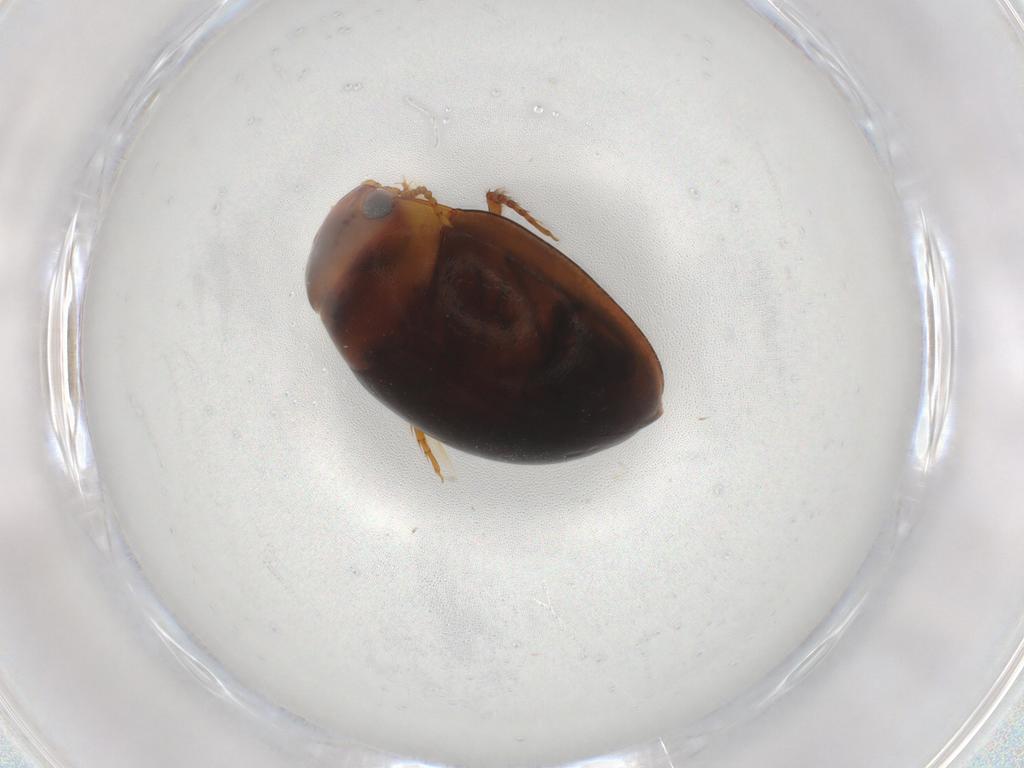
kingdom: Animalia
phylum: Arthropoda
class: Insecta
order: Coleoptera
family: Dytiscidae
